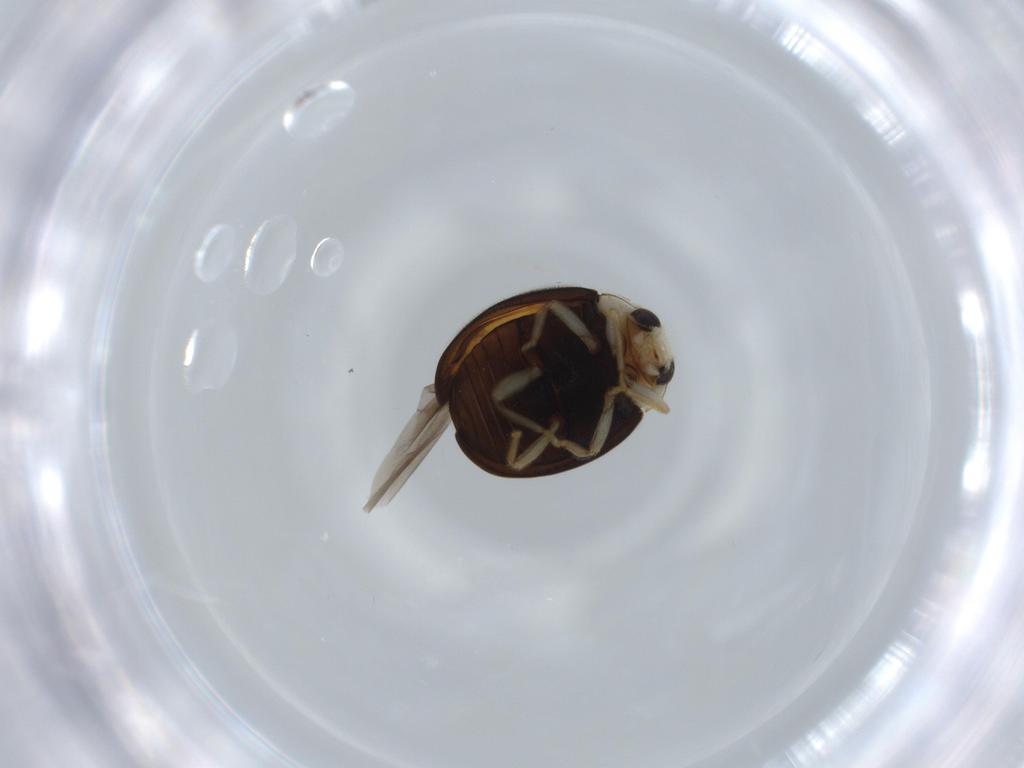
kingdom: Animalia
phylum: Arthropoda
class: Insecta
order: Coleoptera
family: Coccinellidae
